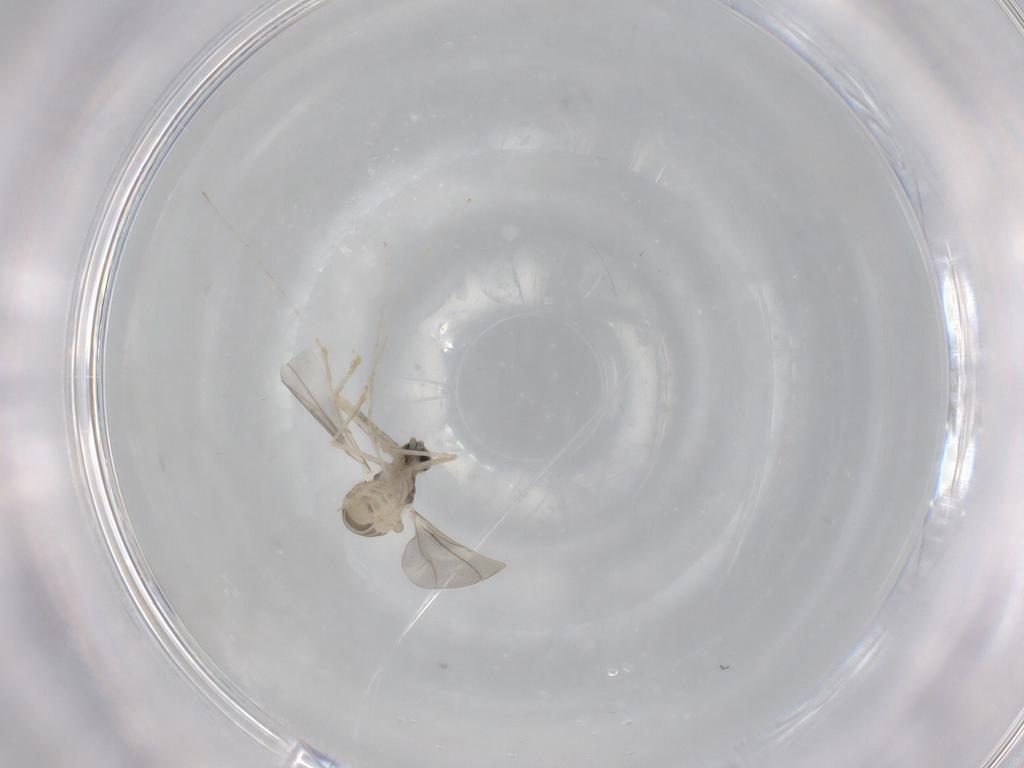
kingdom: Animalia
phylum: Arthropoda
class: Insecta
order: Diptera
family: Cecidomyiidae
